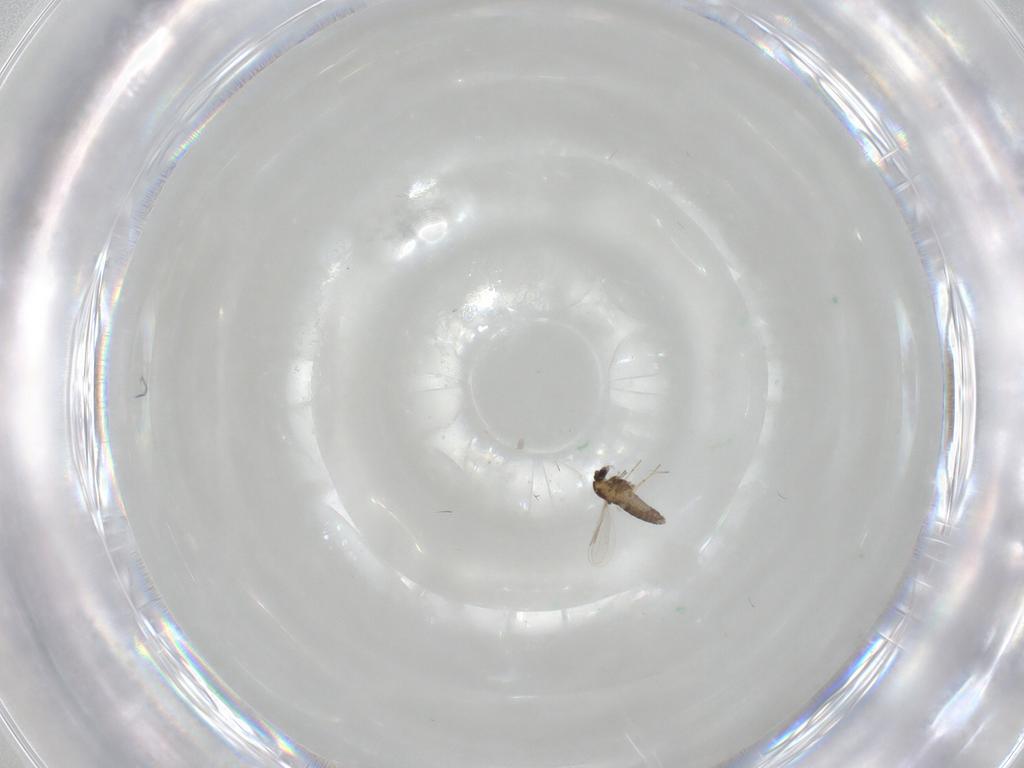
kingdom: Animalia
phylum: Arthropoda
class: Insecta
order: Diptera
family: Chironomidae
